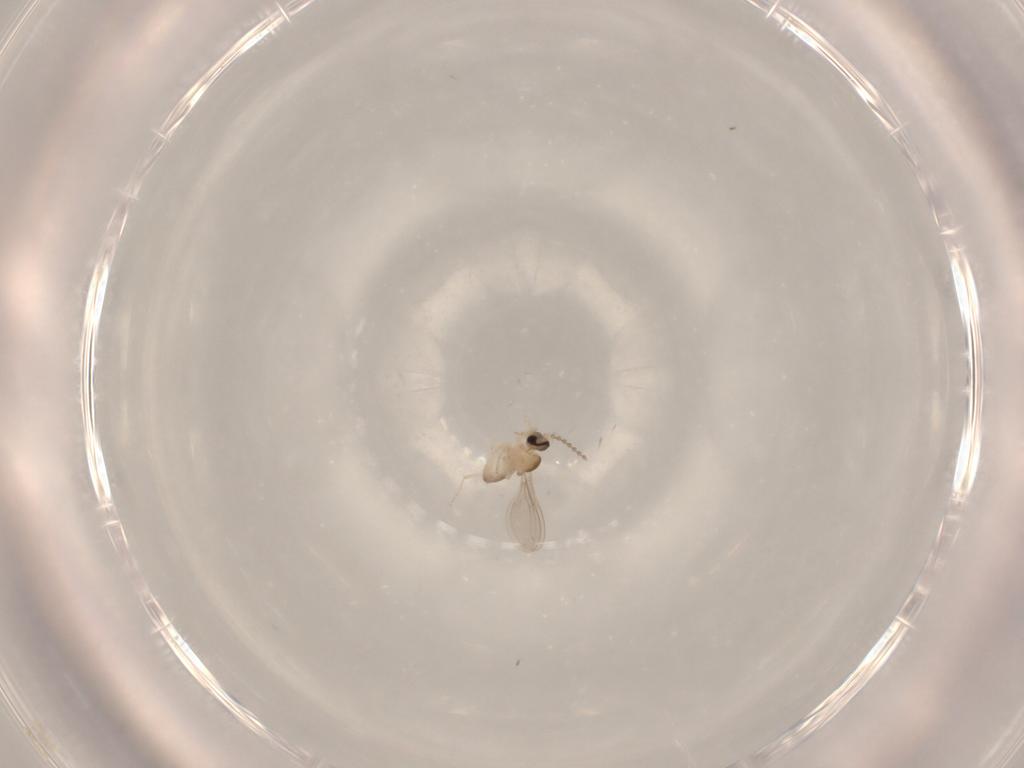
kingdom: Animalia
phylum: Arthropoda
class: Insecta
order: Diptera
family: Cecidomyiidae
